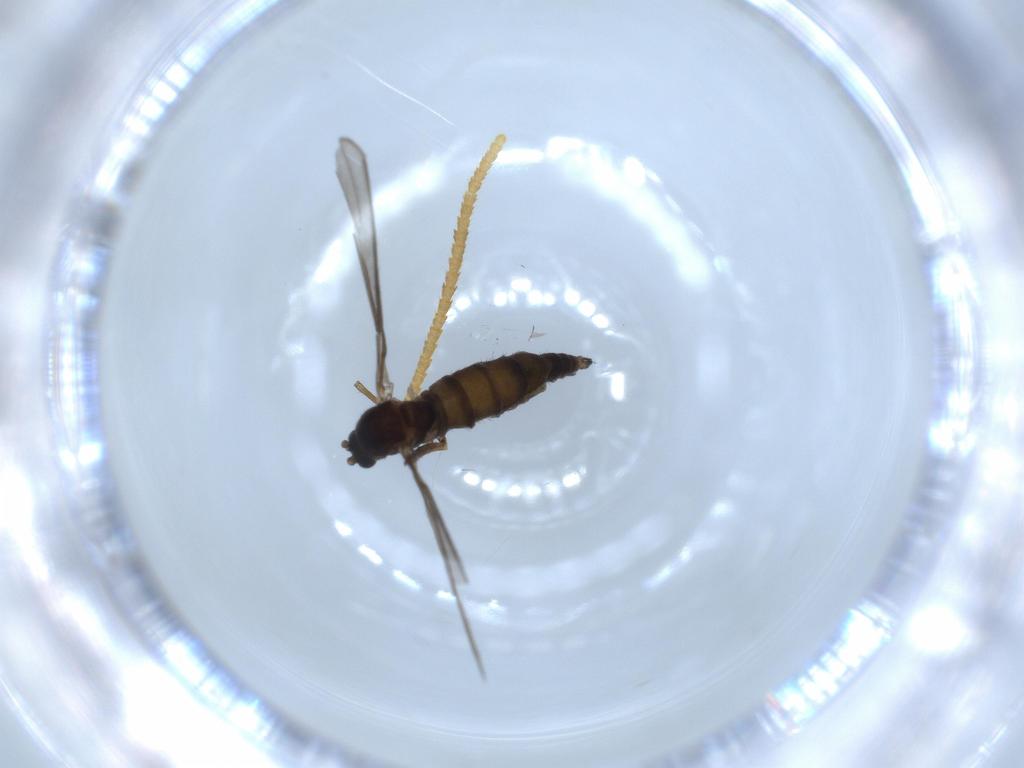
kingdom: Animalia
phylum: Arthropoda
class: Insecta
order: Diptera
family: Sciaridae
